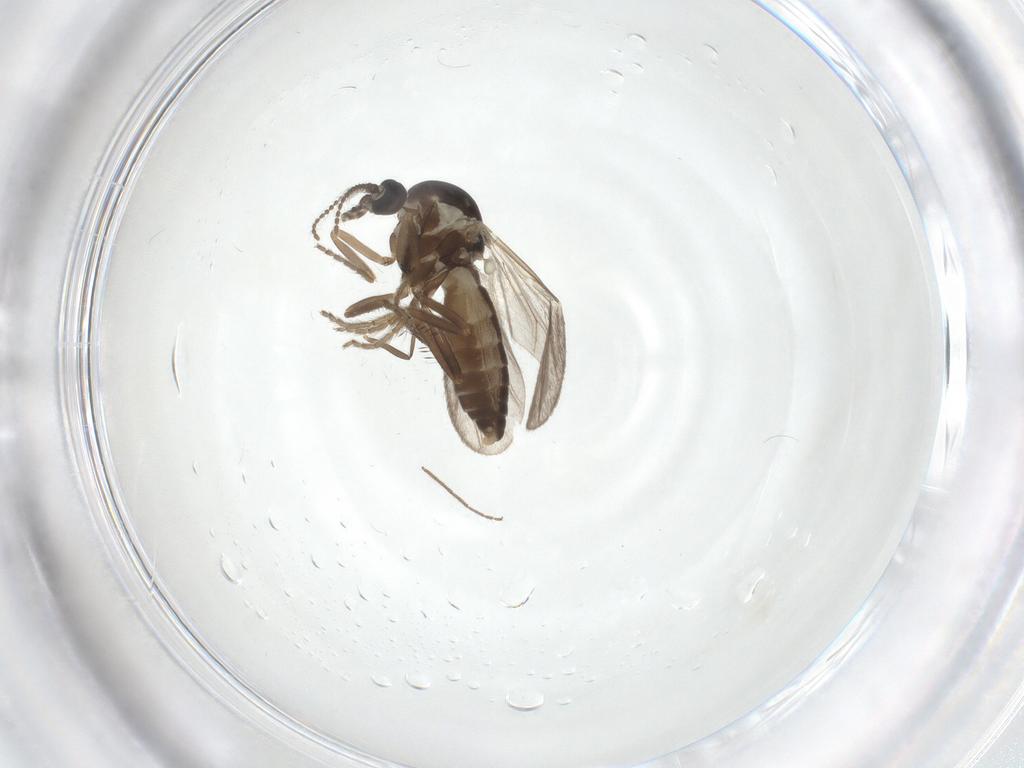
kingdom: Animalia
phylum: Arthropoda
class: Insecta
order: Diptera
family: Ceratopogonidae
